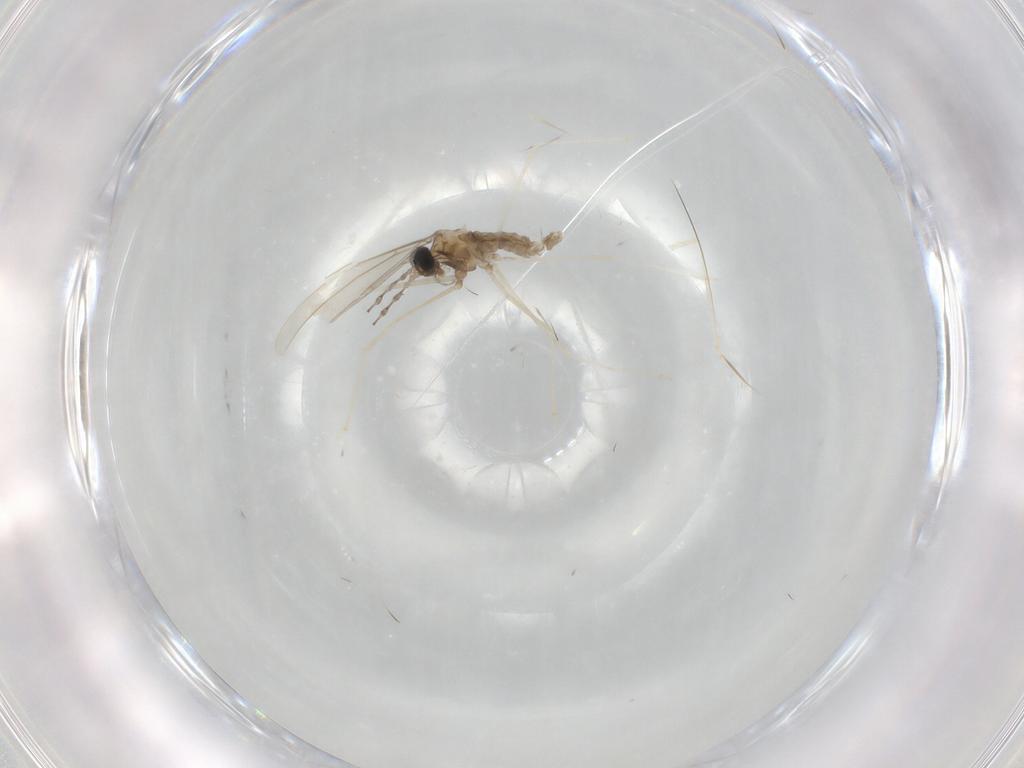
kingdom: Animalia
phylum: Arthropoda
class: Insecta
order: Diptera
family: Cecidomyiidae
